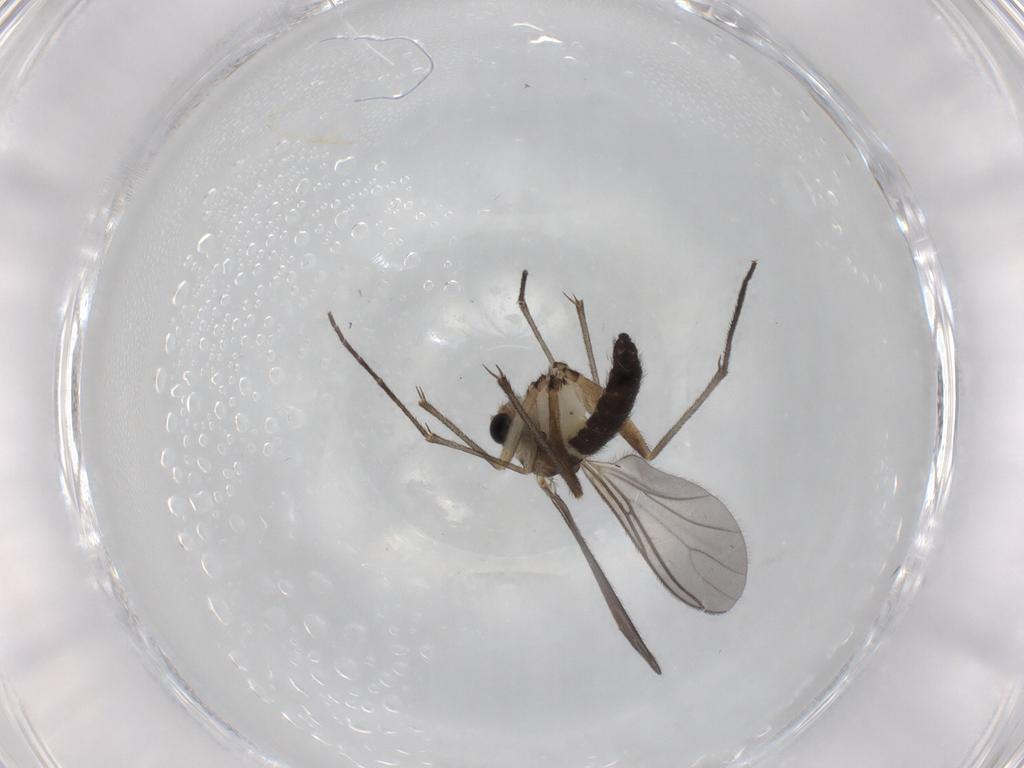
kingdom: Animalia
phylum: Arthropoda
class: Insecta
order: Diptera
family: Sciaridae
